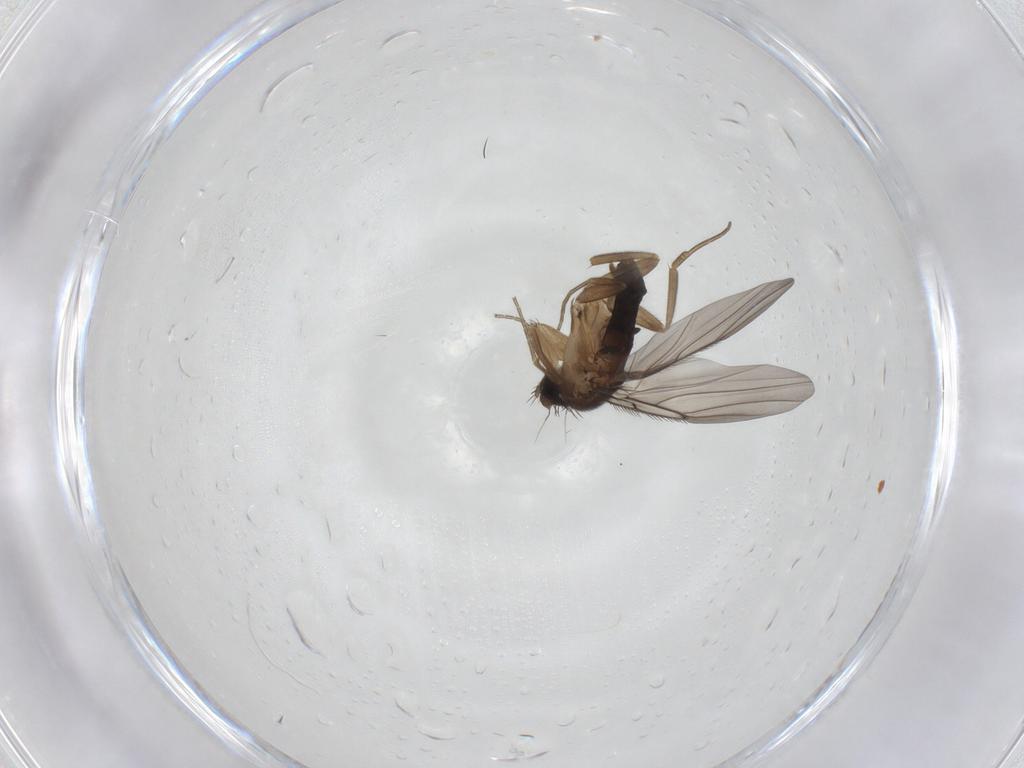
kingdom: Animalia
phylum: Arthropoda
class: Insecta
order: Diptera
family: Phoridae
